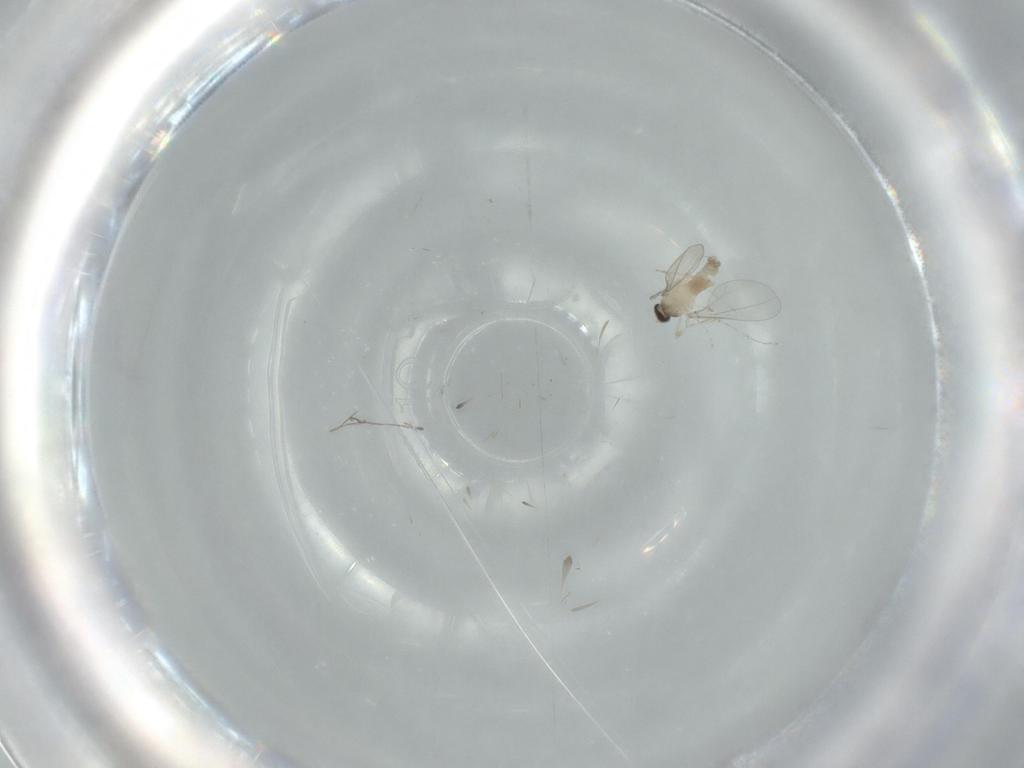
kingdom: Animalia
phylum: Arthropoda
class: Insecta
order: Diptera
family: Cecidomyiidae
